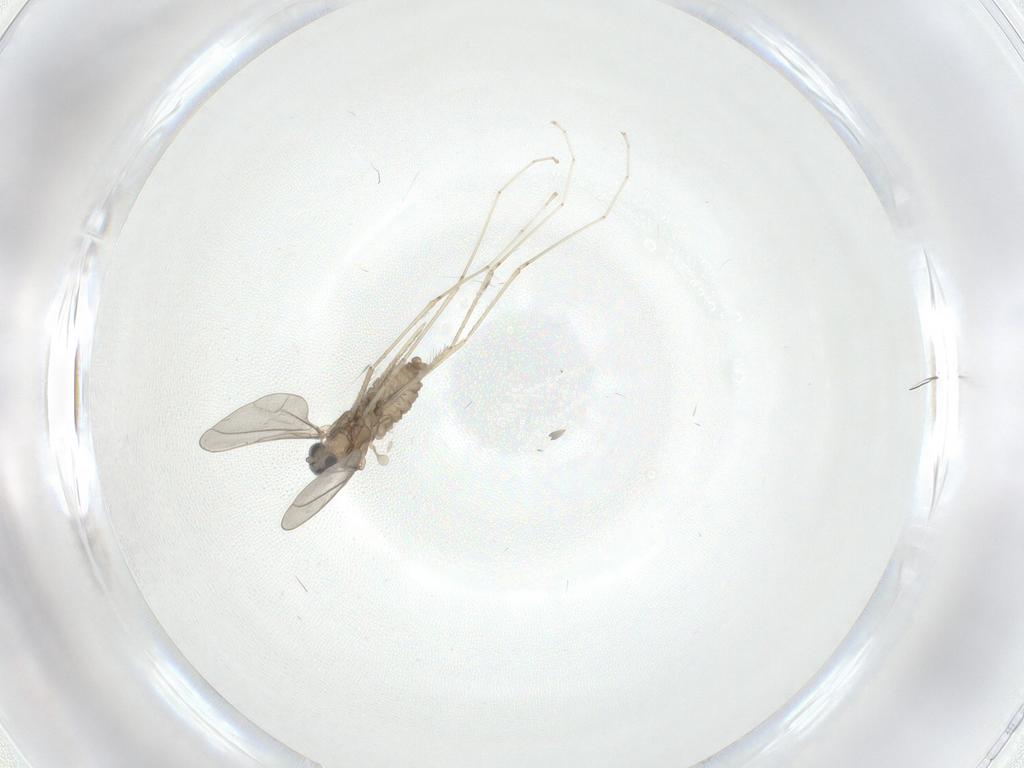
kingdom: Animalia
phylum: Arthropoda
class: Insecta
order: Diptera
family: Cecidomyiidae
